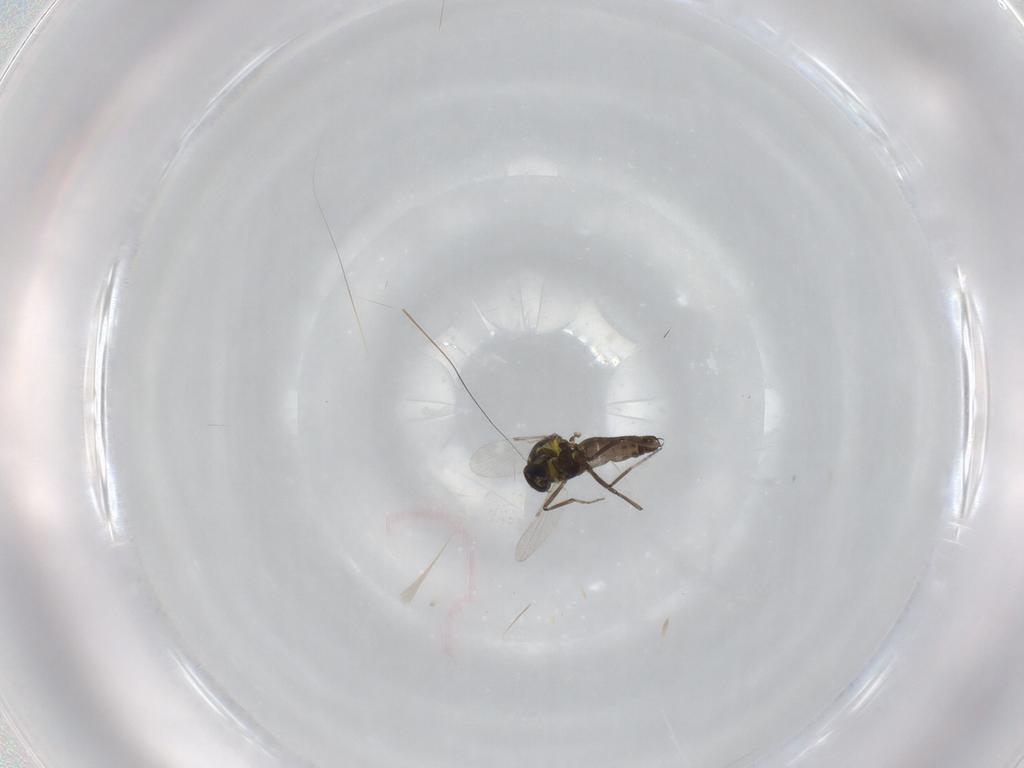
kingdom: Animalia
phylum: Arthropoda
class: Insecta
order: Diptera
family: Ceratopogonidae
